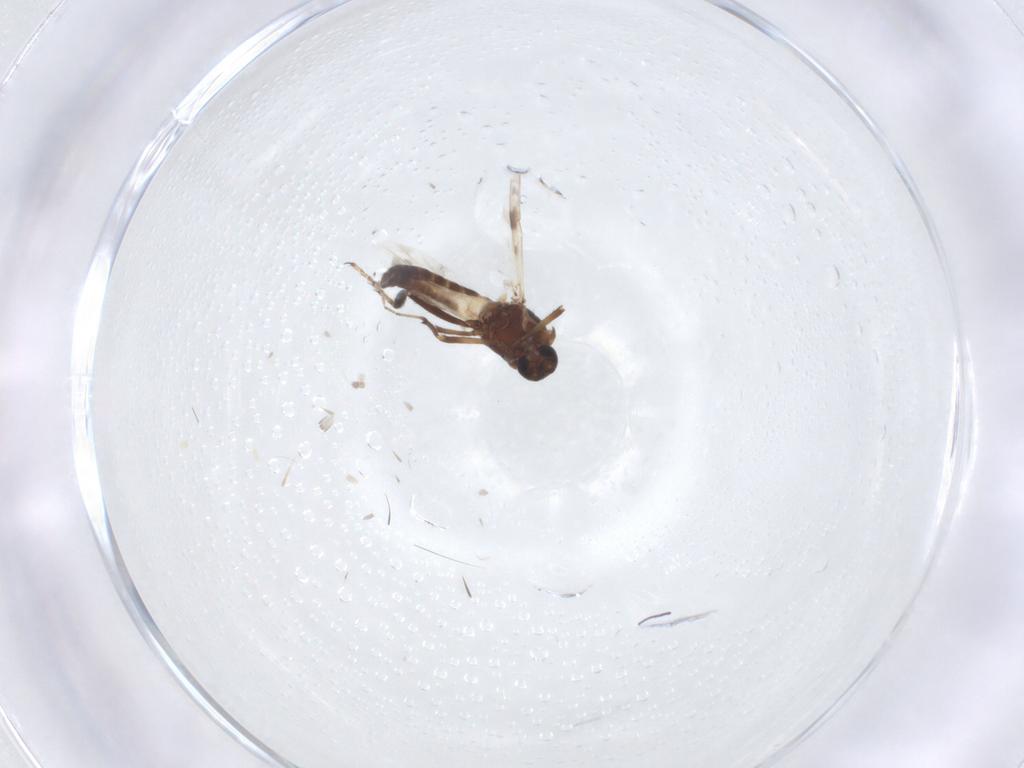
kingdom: Animalia
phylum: Arthropoda
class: Insecta
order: Diptera
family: Ceratopogonidae
